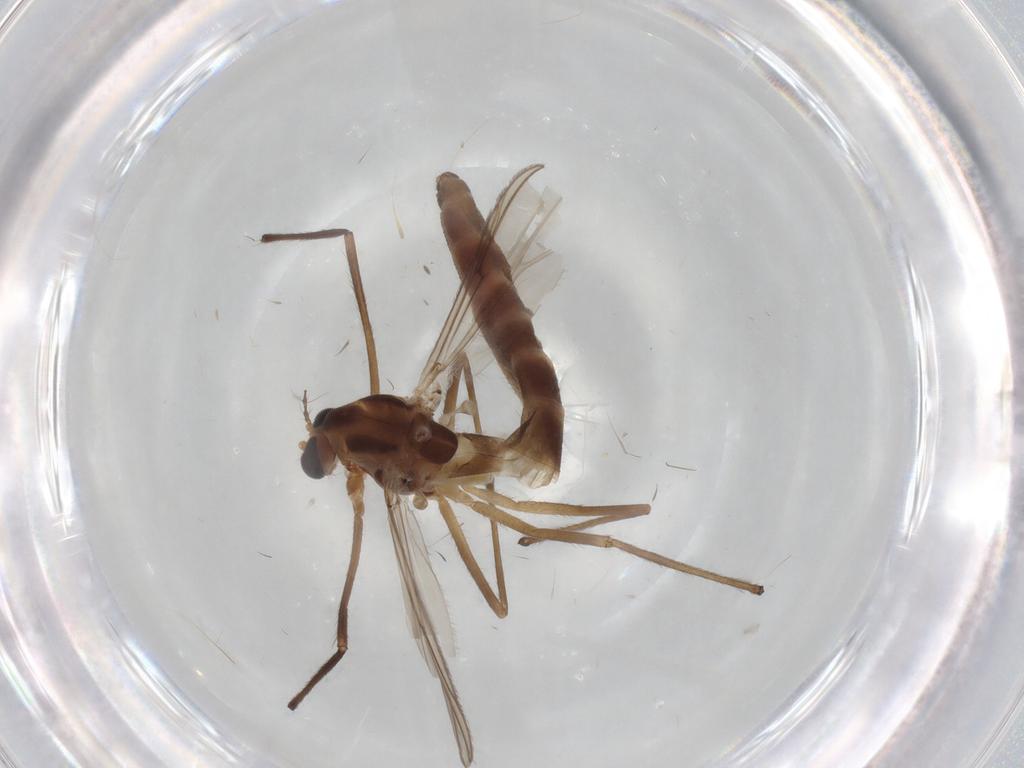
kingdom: Animalia
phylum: Arthropoda
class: Insecta
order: Diptera
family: Chironomidae
